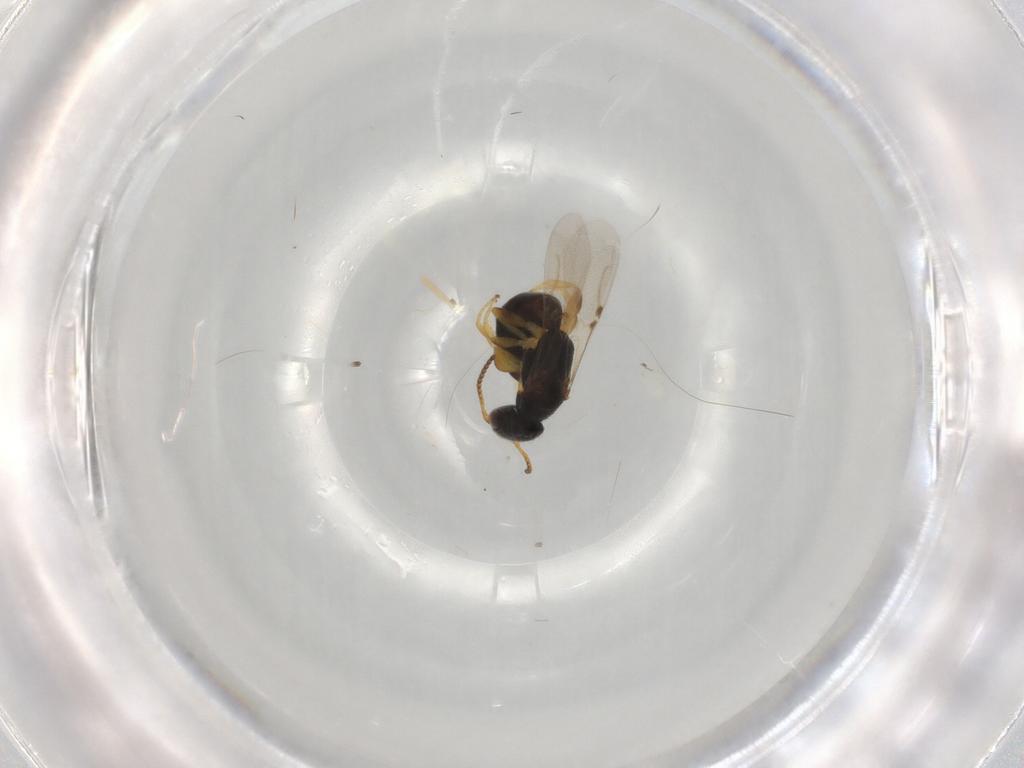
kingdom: Animalia
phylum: Arthropoda
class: Insecta
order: Hymenoptera
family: Bethylidae
